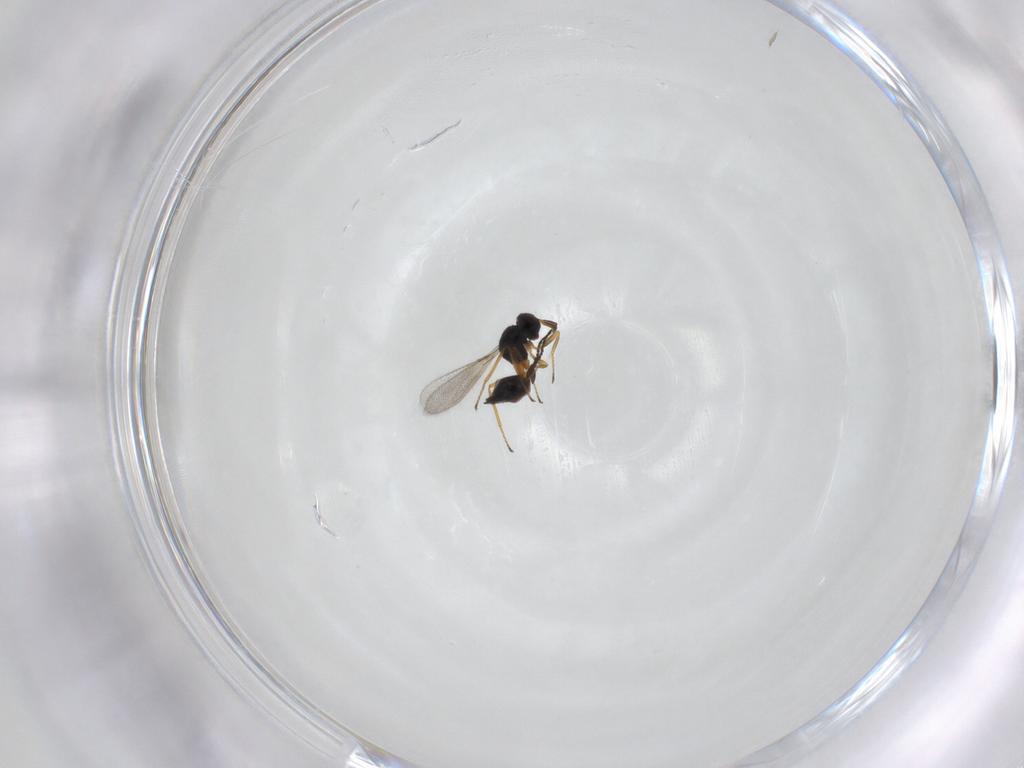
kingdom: Animalia
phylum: Arthropoda
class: Insecta
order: Hymenoptera
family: Mymaridae
